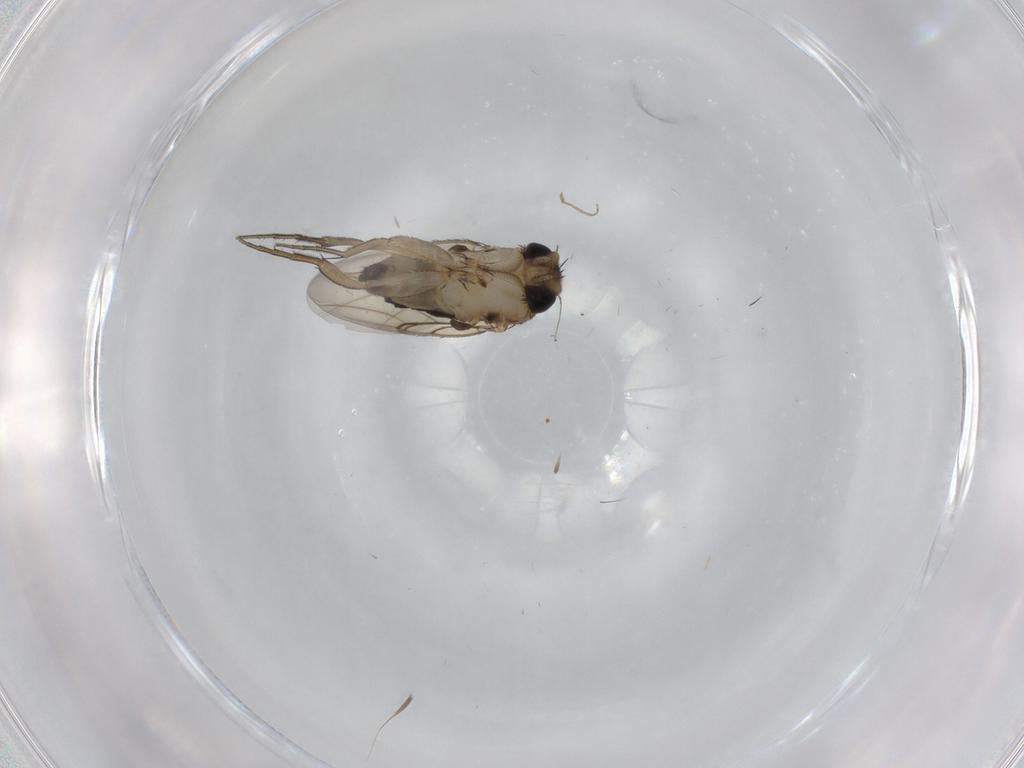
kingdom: Animalia
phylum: Arthropoda
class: Insecta
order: Diptera
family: Phoridae
